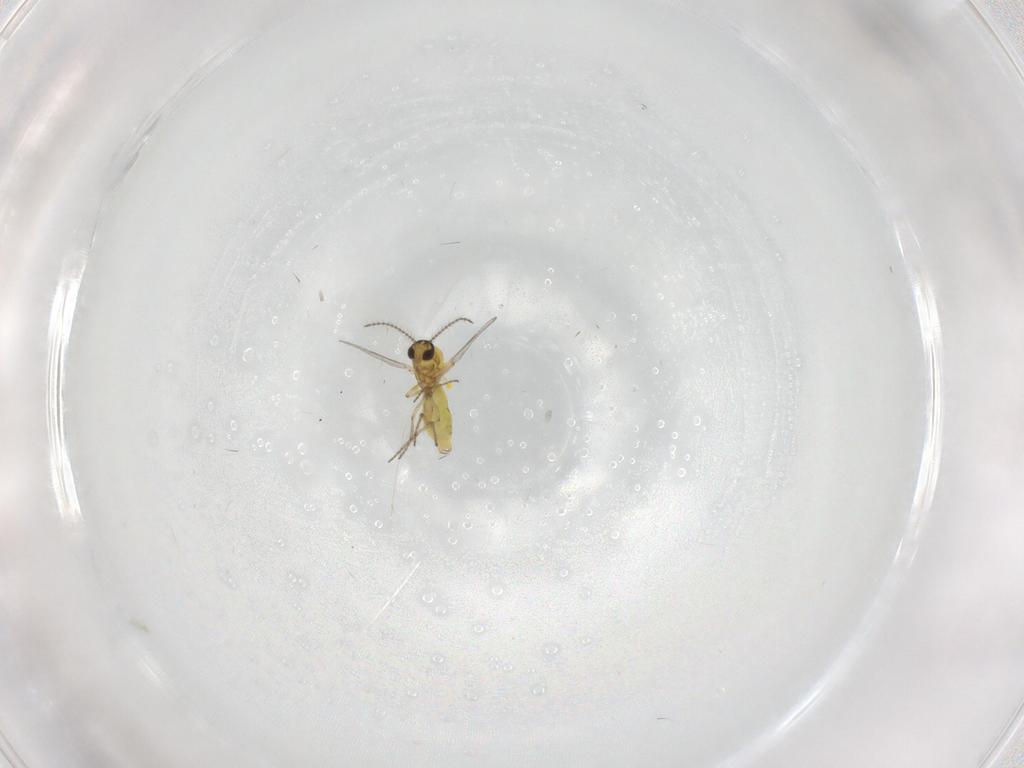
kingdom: Animalia
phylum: Arthropoda
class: Insecta
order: Diptera
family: Ceratopogonidae
